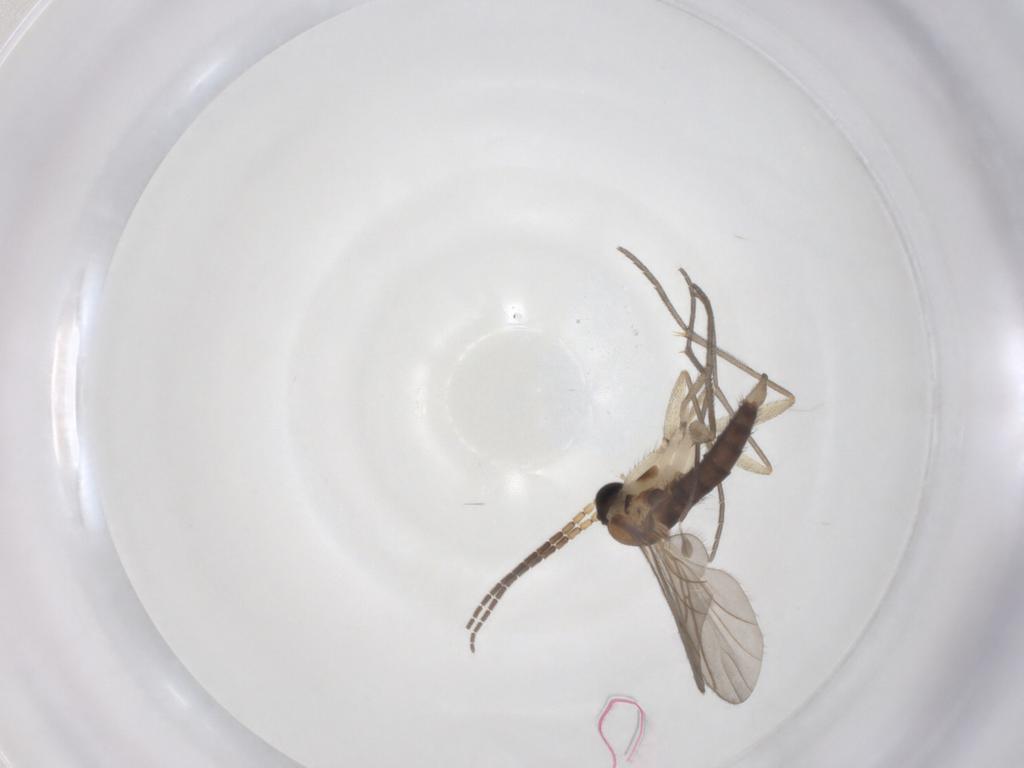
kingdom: Animalia
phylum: Arthropoda
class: Insecta
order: Diptera
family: Sciaridae
